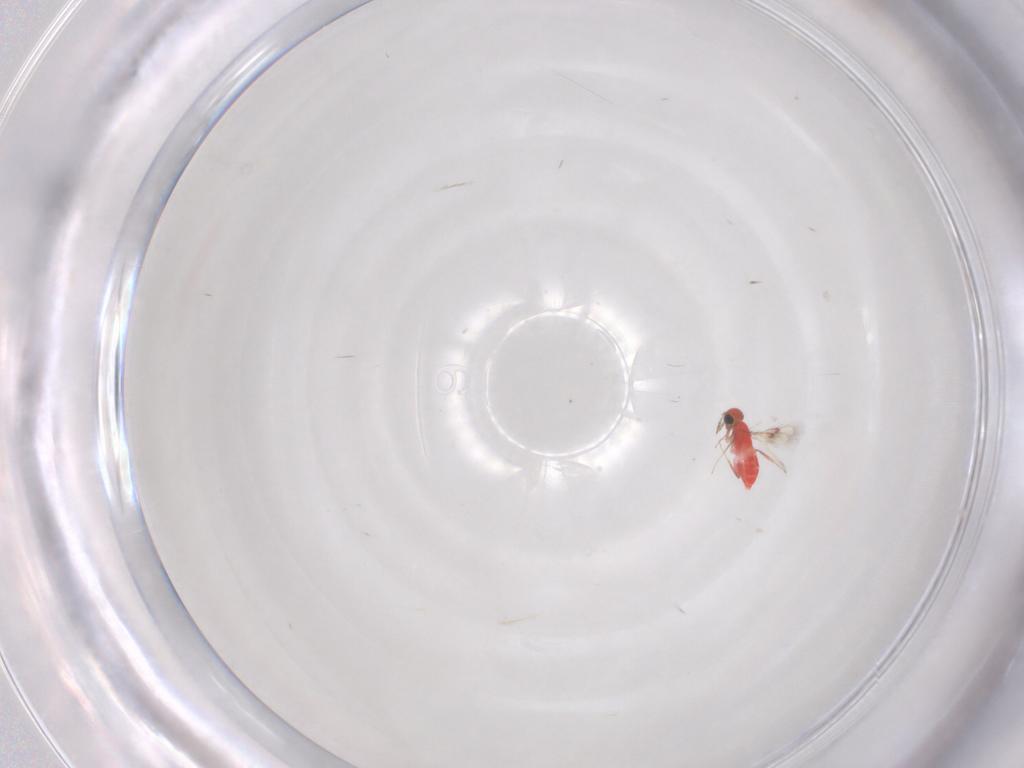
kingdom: Animalia
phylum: Arthropoda
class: Insecta
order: Hymenoptera
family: Trichogrammatidae
